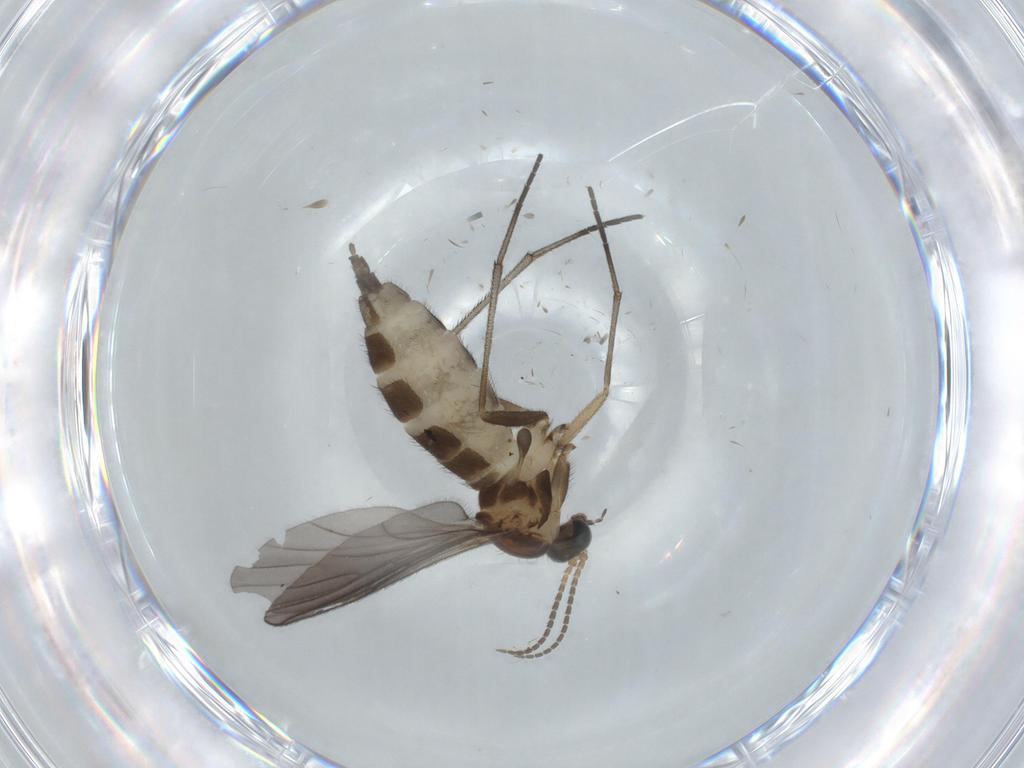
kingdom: Animalia
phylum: Arthropoda
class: Insecta
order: Diptera
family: Sciaridae
